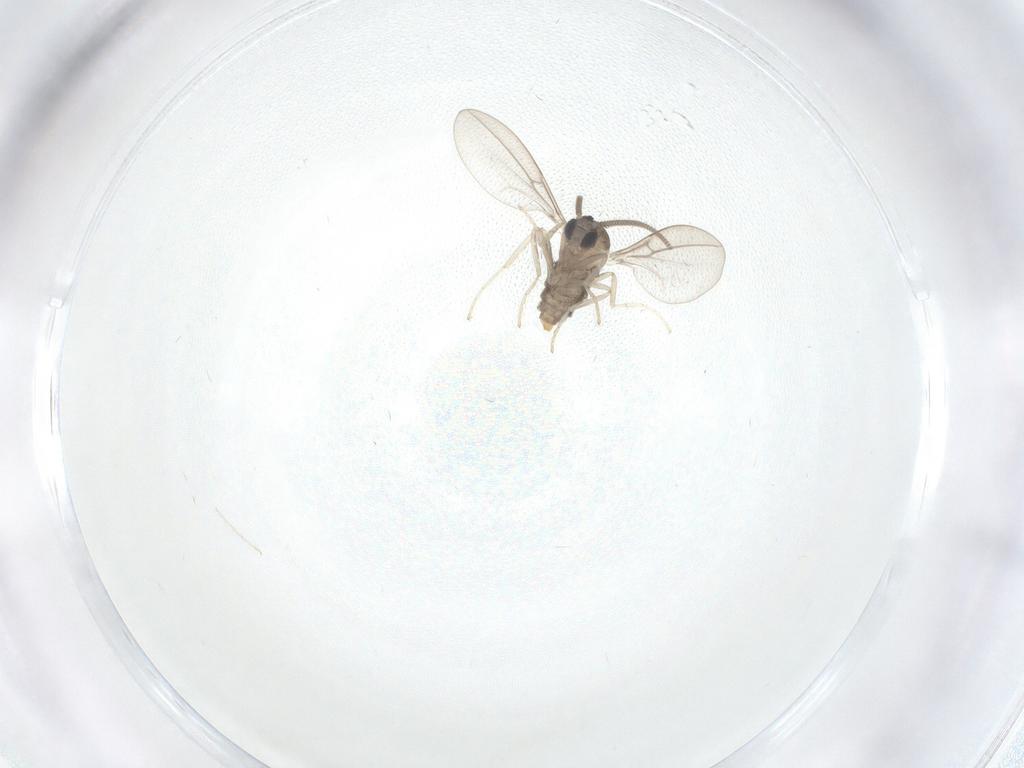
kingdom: Animalia
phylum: Arthropoda
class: Insecta
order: Diptera
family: Cecidomyiidae
